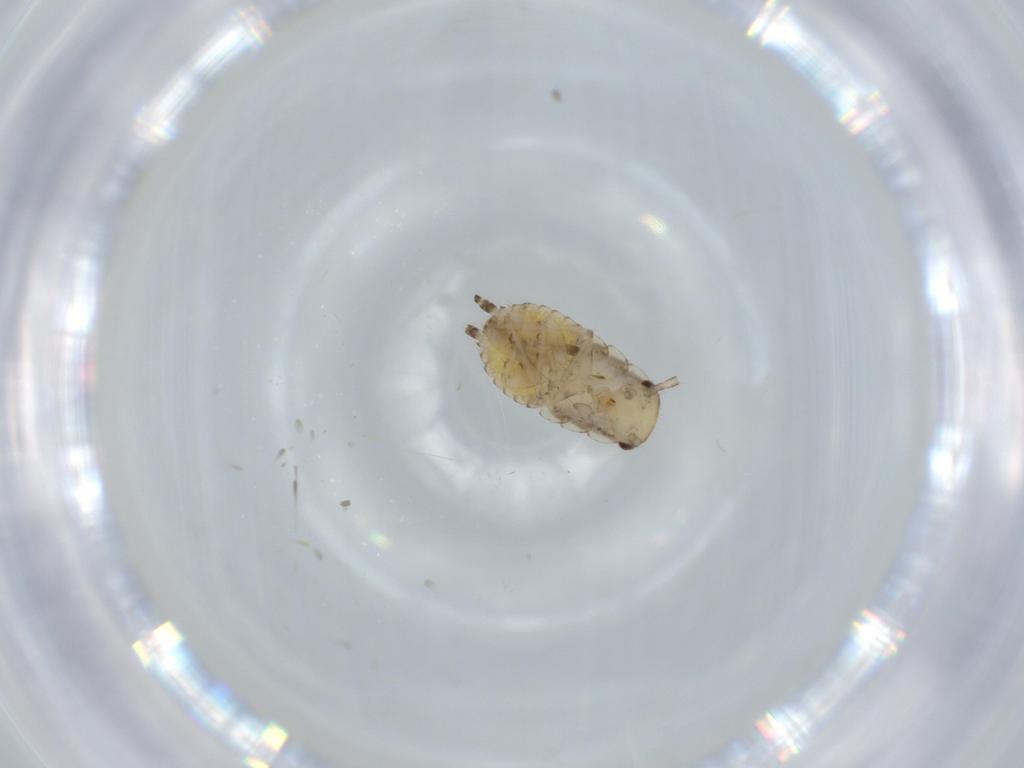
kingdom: Animalia
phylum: Arthropoda
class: Insecta
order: Blattodea
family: Ectobiidae
